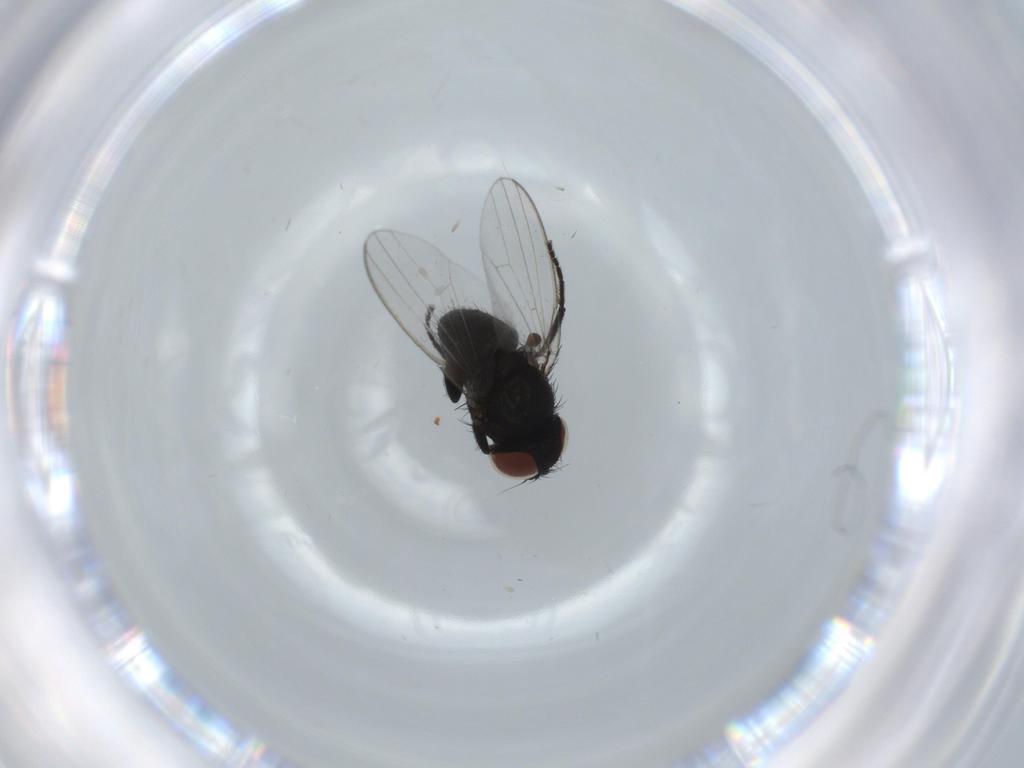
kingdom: Animalia
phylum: Arthropoda
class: Insecta
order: Diptera
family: Milichiidae
